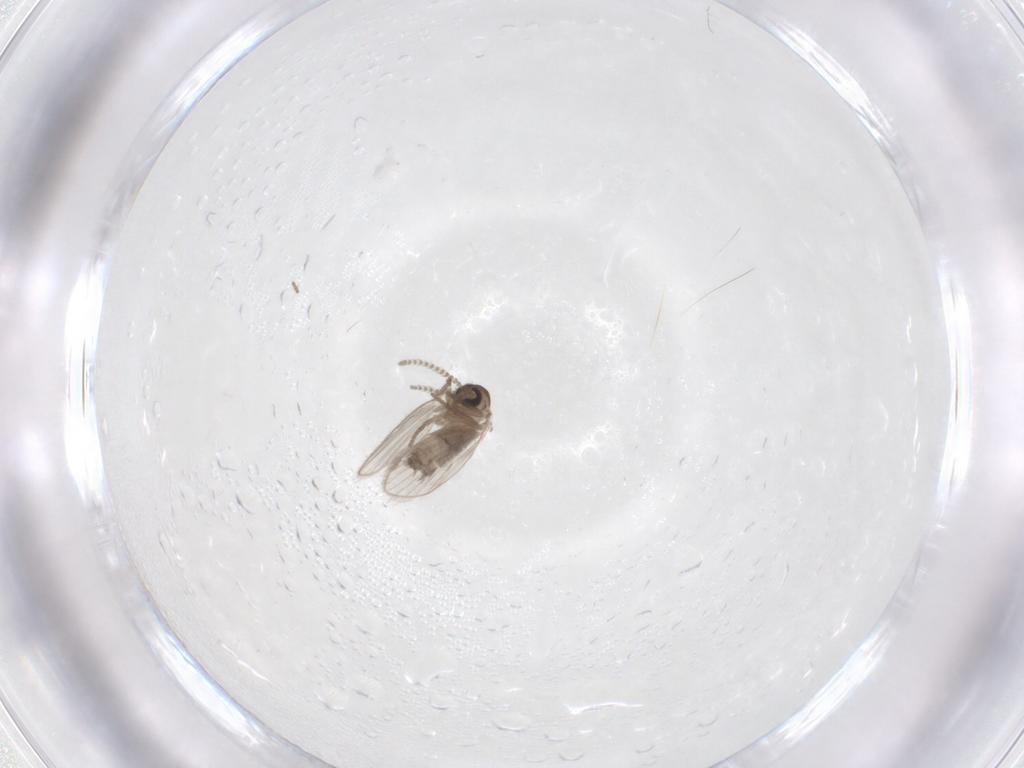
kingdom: Animalia
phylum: Arthropoda
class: Insecta
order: Diptera
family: Psychodidae
